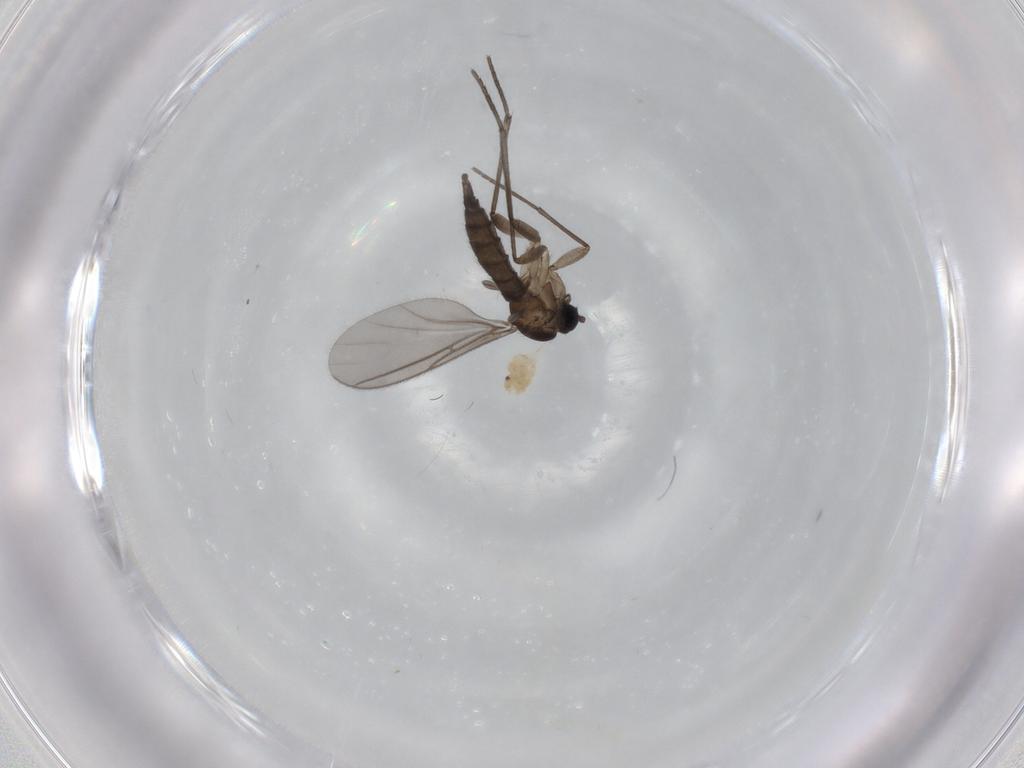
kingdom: Animalia
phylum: Arthropoda
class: Insecta
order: Diptera
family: Sciaridae
